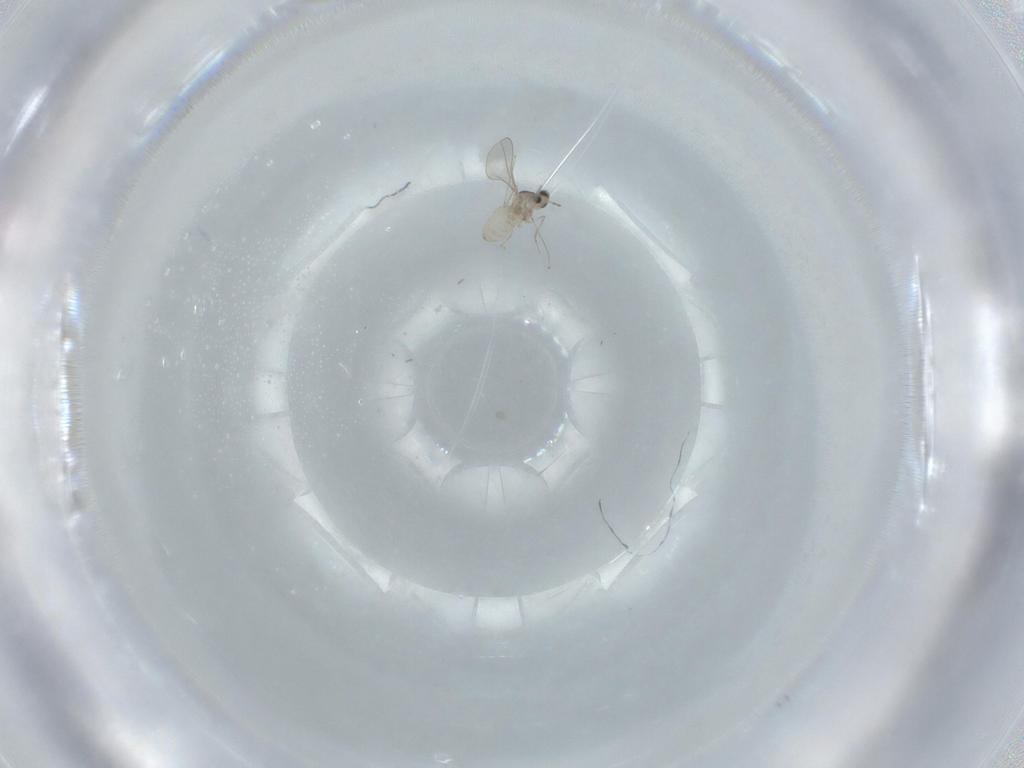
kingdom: Animalia
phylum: Arthropoda
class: Insecta
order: Diptera
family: Cecidomyiidae
